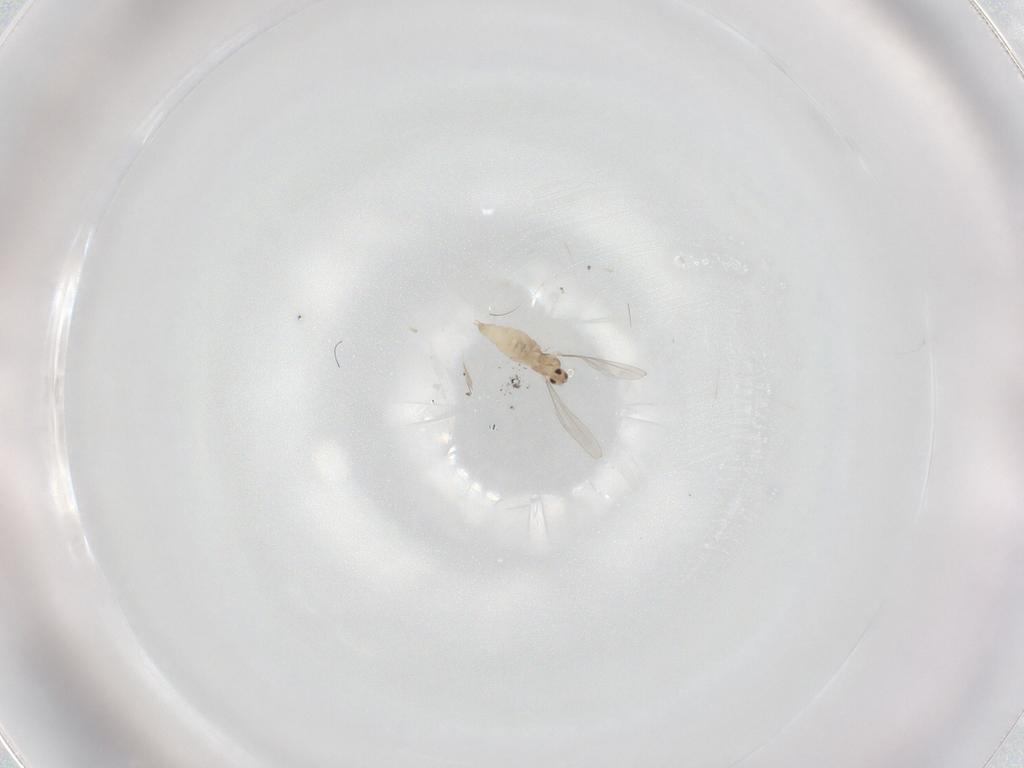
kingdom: Animalia
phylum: Arthropoda
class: Insecta
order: Diptera
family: Cecidomyiidae
